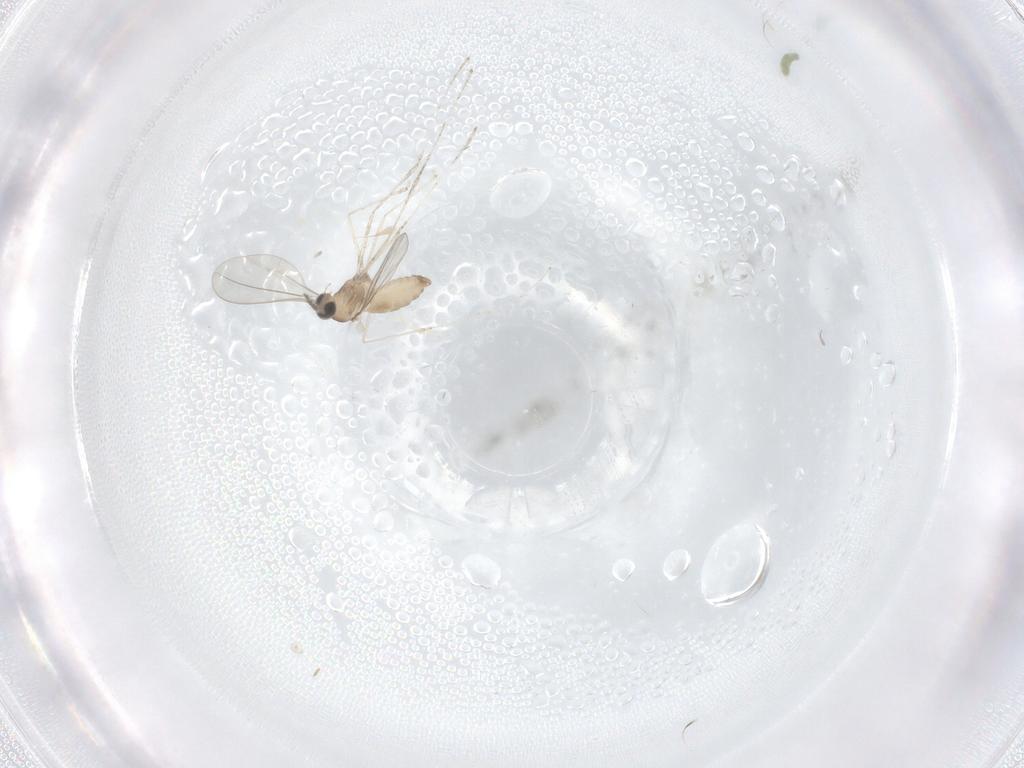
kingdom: Animalia
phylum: Arthropoda
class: Insecta
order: Diptera
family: Cecidomyiidae
